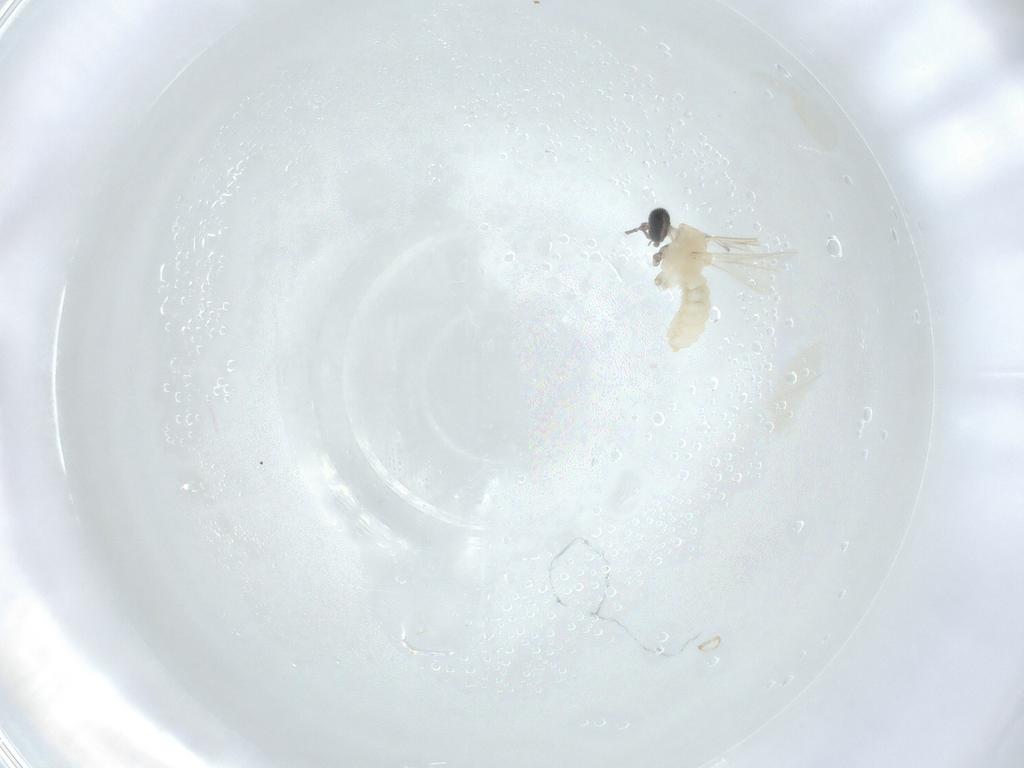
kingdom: Animalia
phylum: Arthropoda
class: Insecta
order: Diptera
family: Cecidomyiidae
